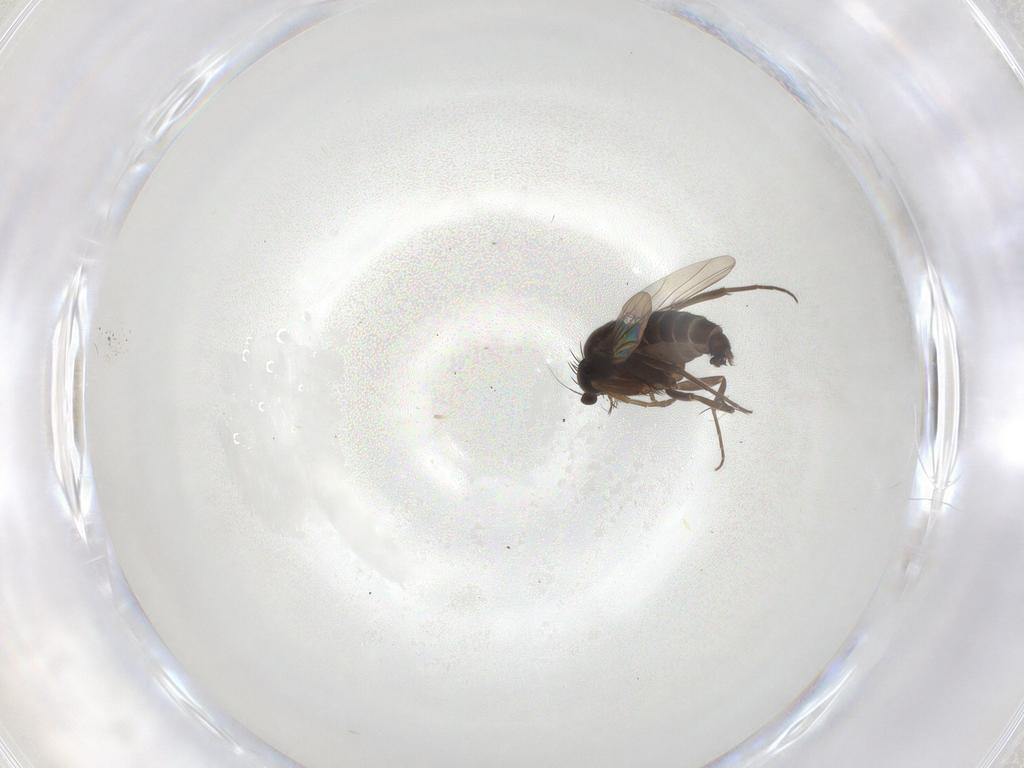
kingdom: Animalia
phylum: Arthropoda
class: Insecta
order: Diptera
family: Phoridae
